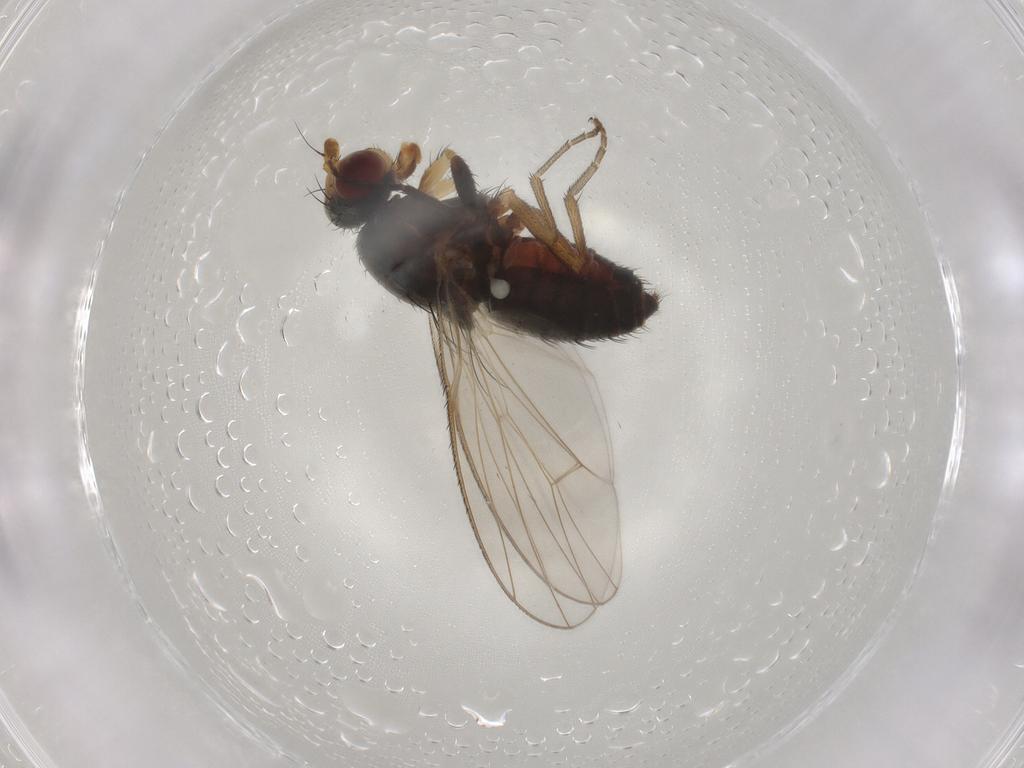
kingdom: Animalia
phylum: Arthropoda
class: Insecta
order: Diptera
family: Heleomyzidae
